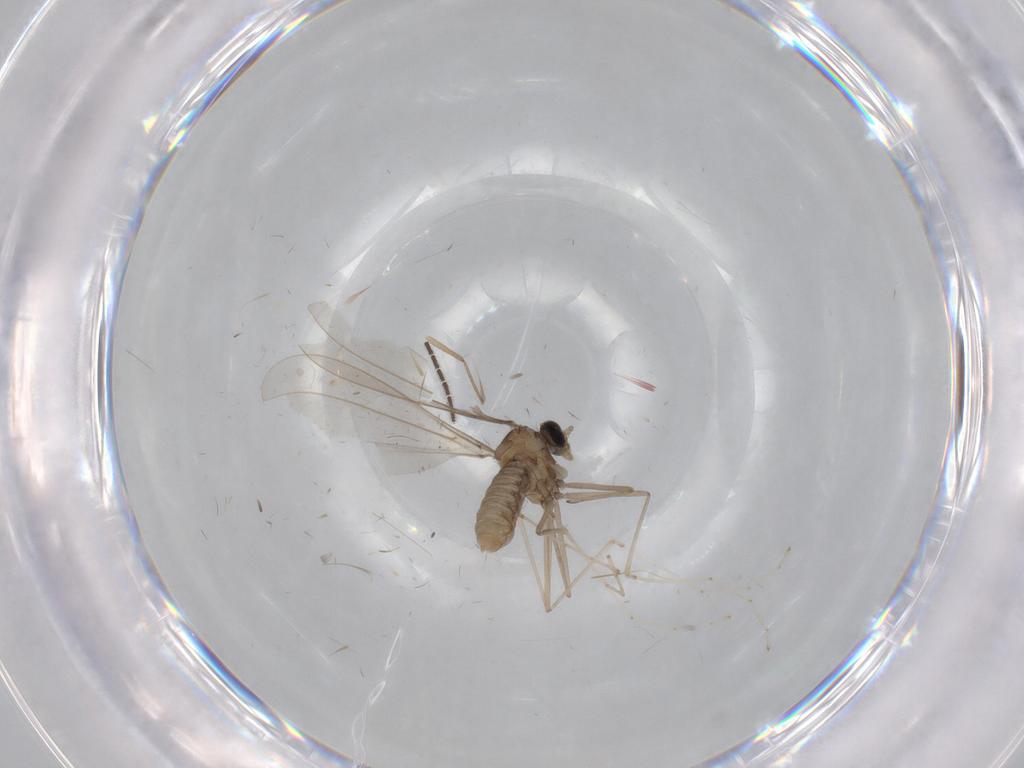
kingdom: Animalia
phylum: Arthropoda
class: Insecta
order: Diptera
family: Cecidomyiidae
